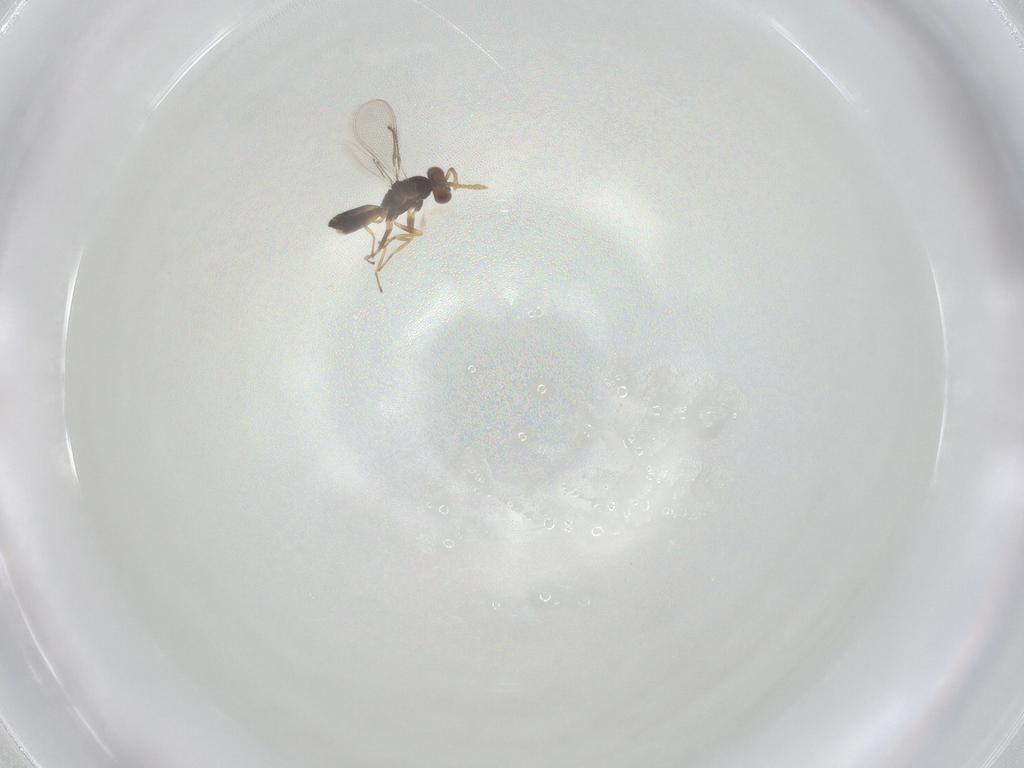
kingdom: Animalia
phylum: Arthropoda
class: Insecta
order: Hymenoptera
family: Eulophidae
